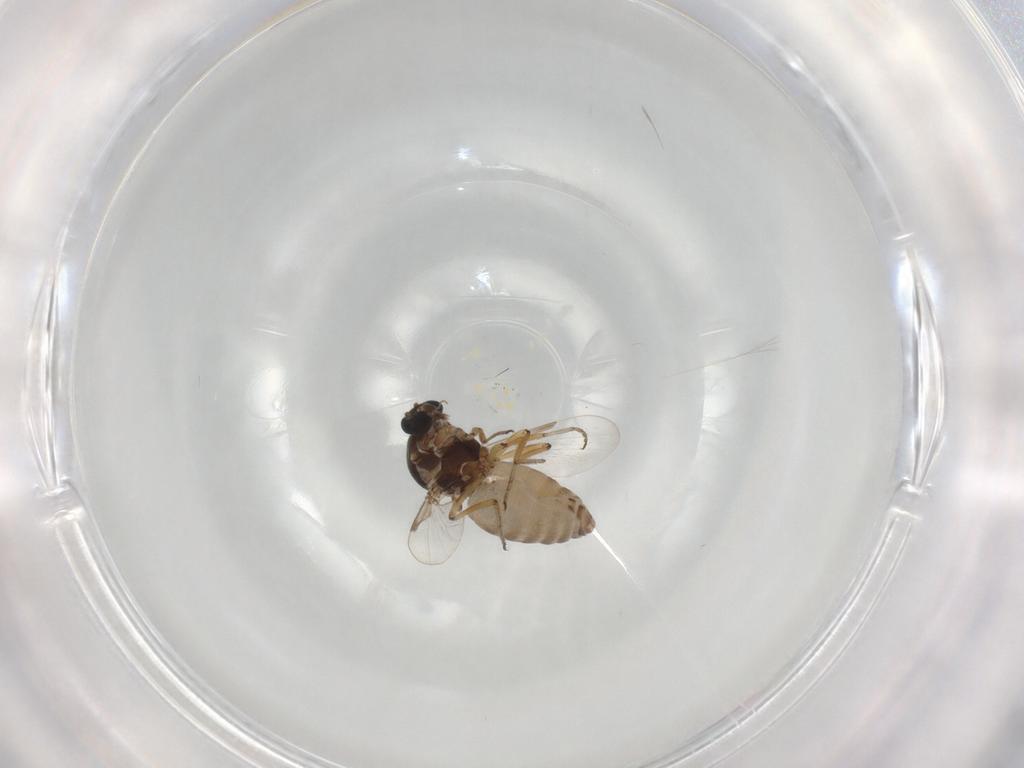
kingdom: Animalia
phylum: Arthropoda
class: Insecta
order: Diptera
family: Ceratopogonidae
